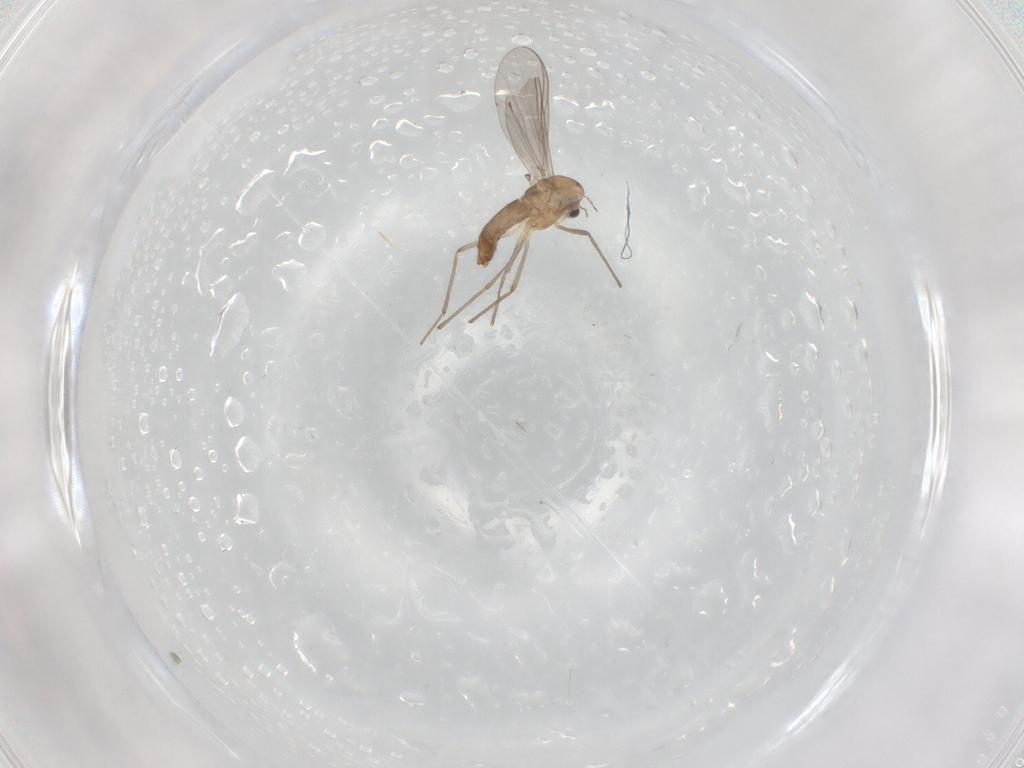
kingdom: Animalia
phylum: Arthropoda
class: Insecta
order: Diptera
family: Chironomidae
